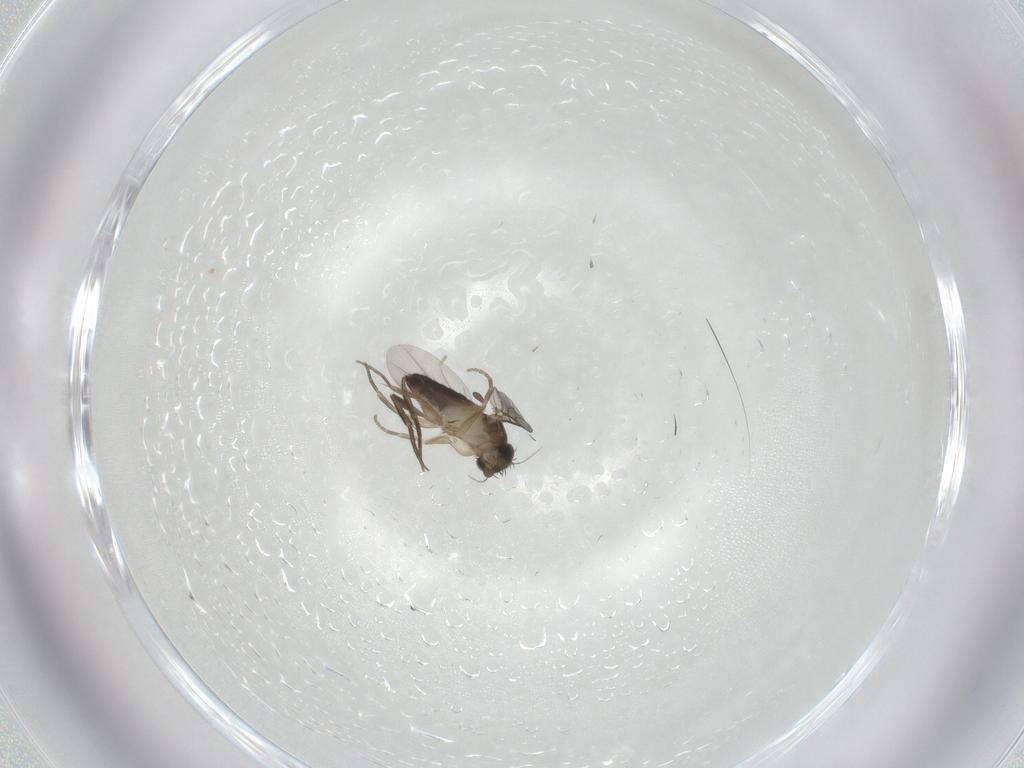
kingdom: Animalia
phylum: Arthropoda
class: Insecta
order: Diptera
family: Phoridae
